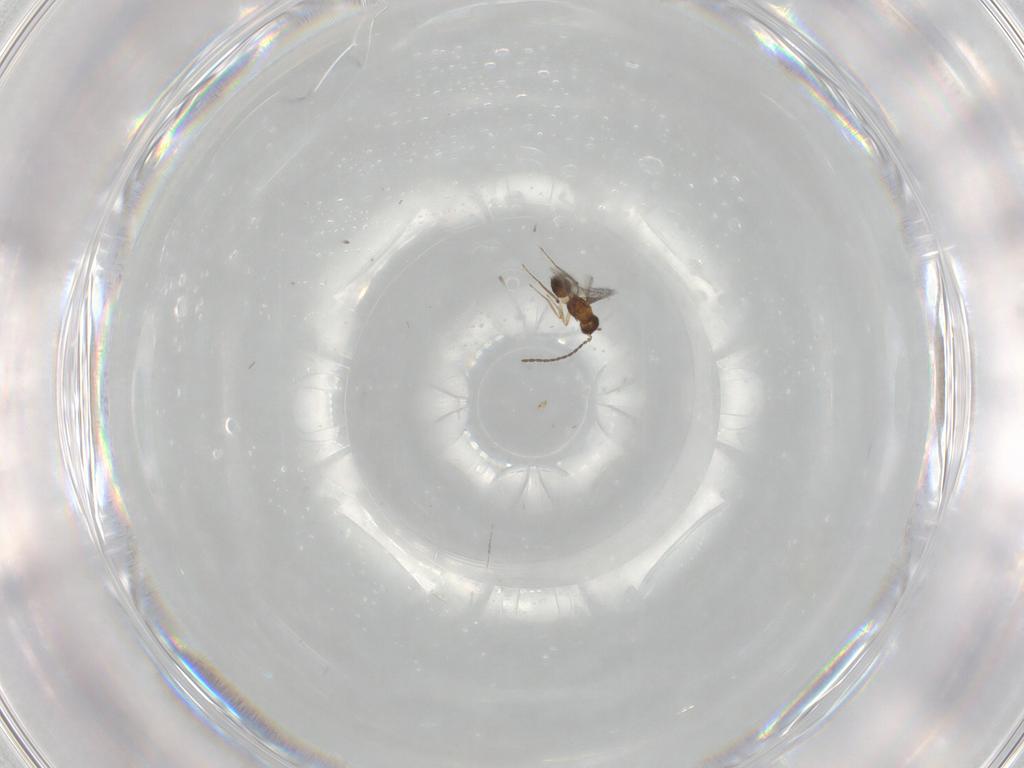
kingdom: Animalia
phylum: Arthropoda
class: Insecta
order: Hymenoptera
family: Mymaridae
